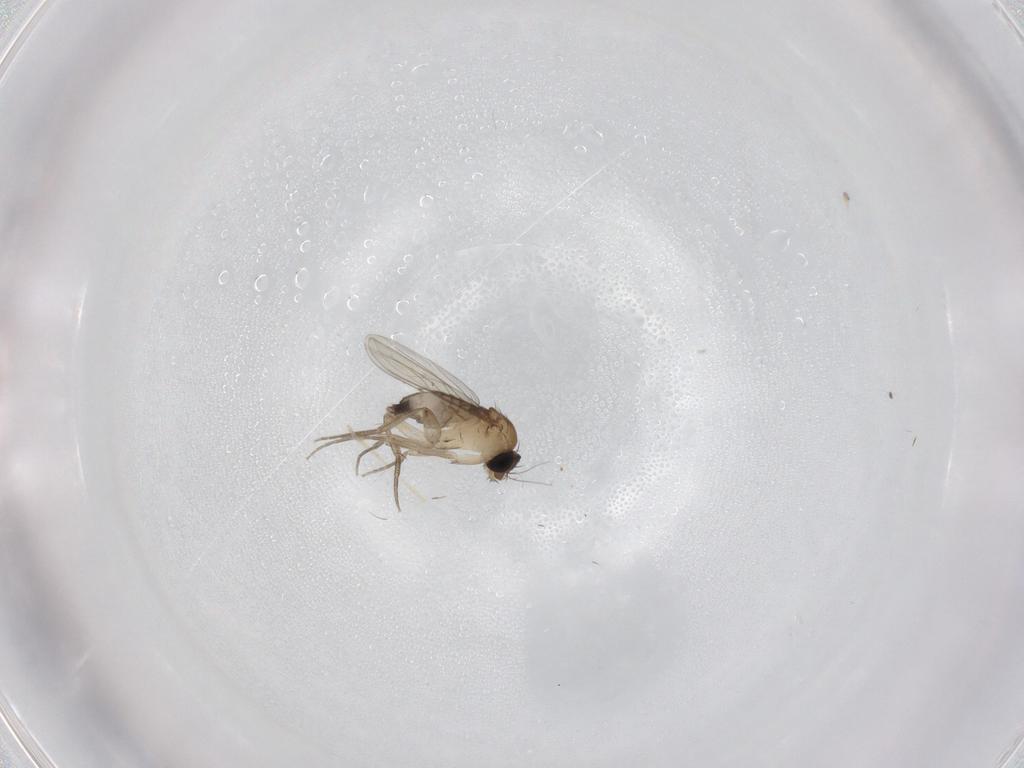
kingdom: Animalia
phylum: Arthropoda
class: Insecta
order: Diptera
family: Phoridae
